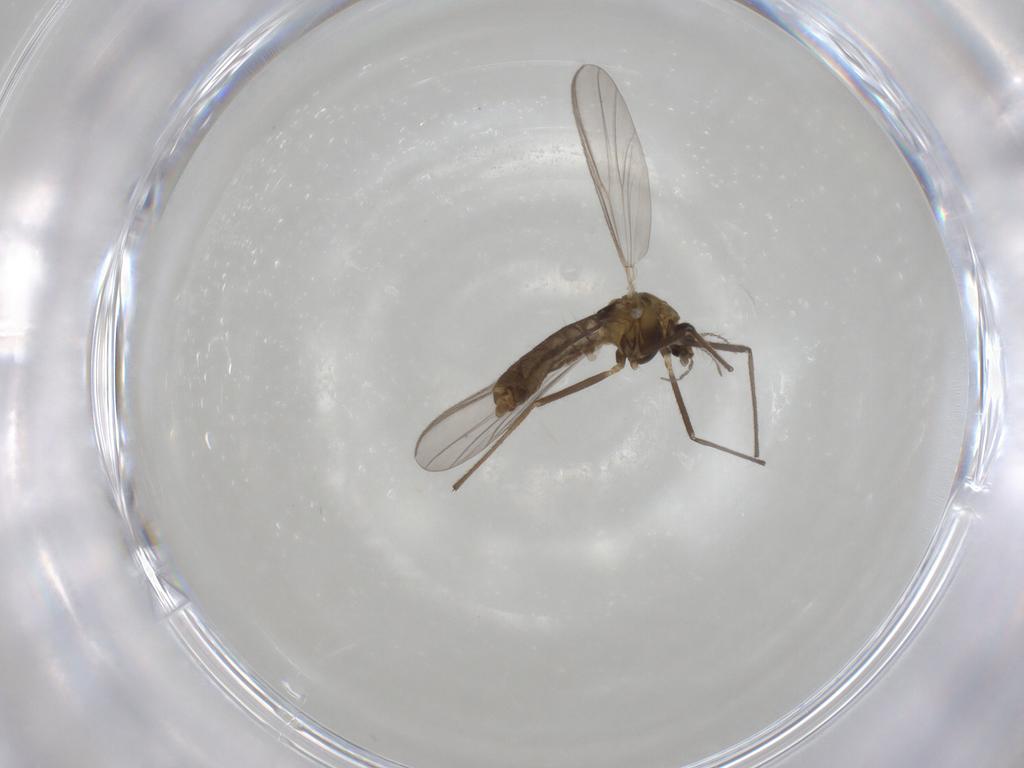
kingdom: Animalia
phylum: Arthropoda
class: Insecta
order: Diptera
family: Chironomidae
